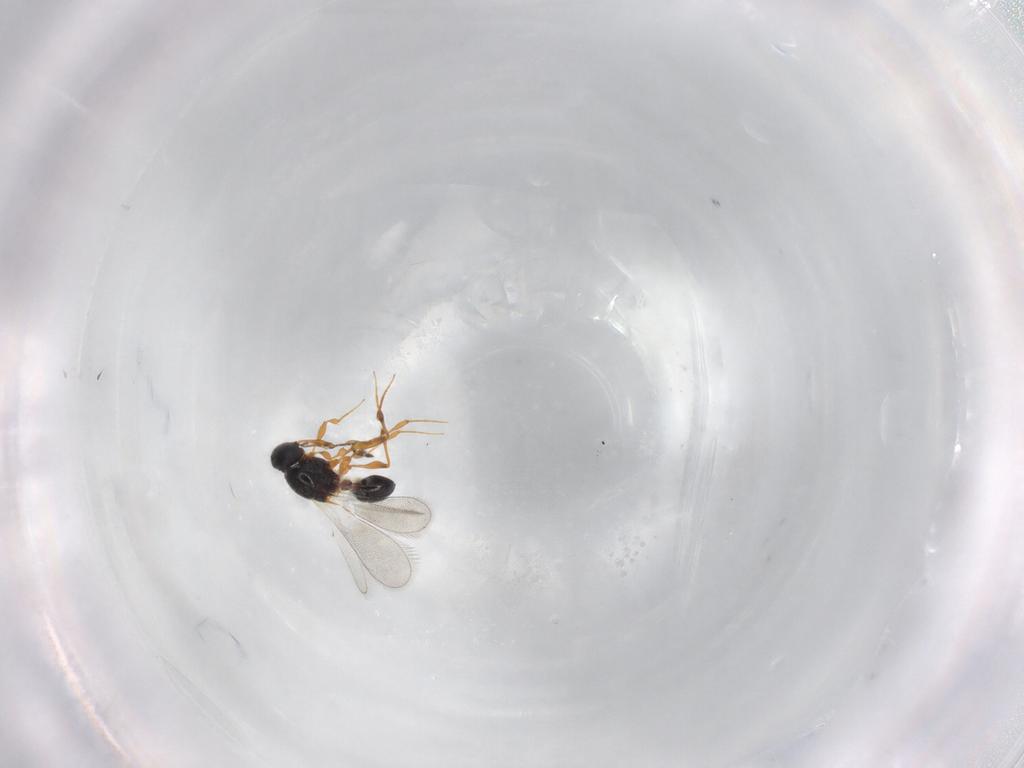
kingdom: Animalia
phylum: Arthropoda
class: Insecta
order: Hymenoptera
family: Platygastridae
